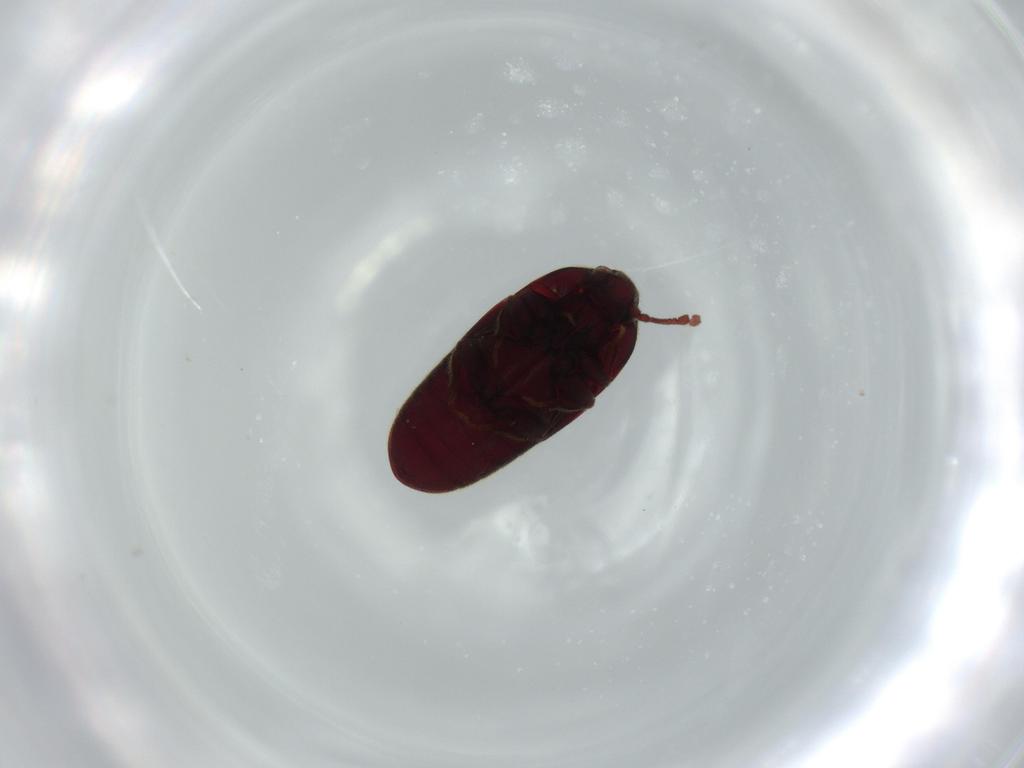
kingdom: Animalia
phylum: Arthropoda
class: Insecta
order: Coleoptera
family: Throscidae
